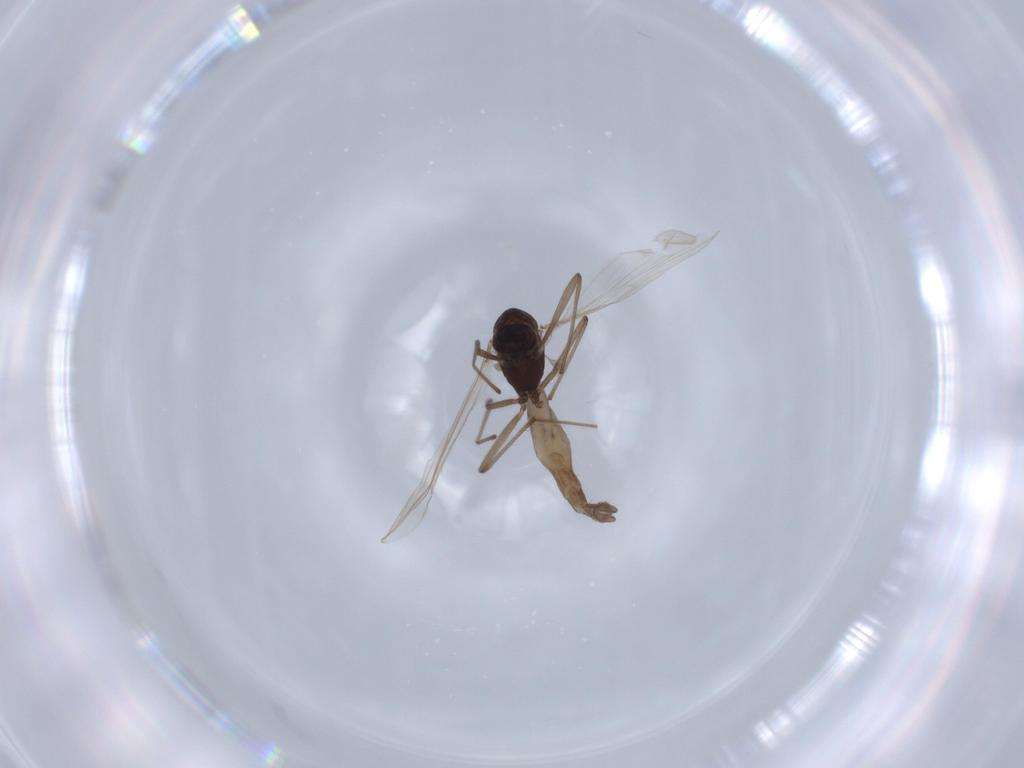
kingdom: Animalia
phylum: Arthropoda
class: Insecta
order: Diptera
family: Chironomidae
